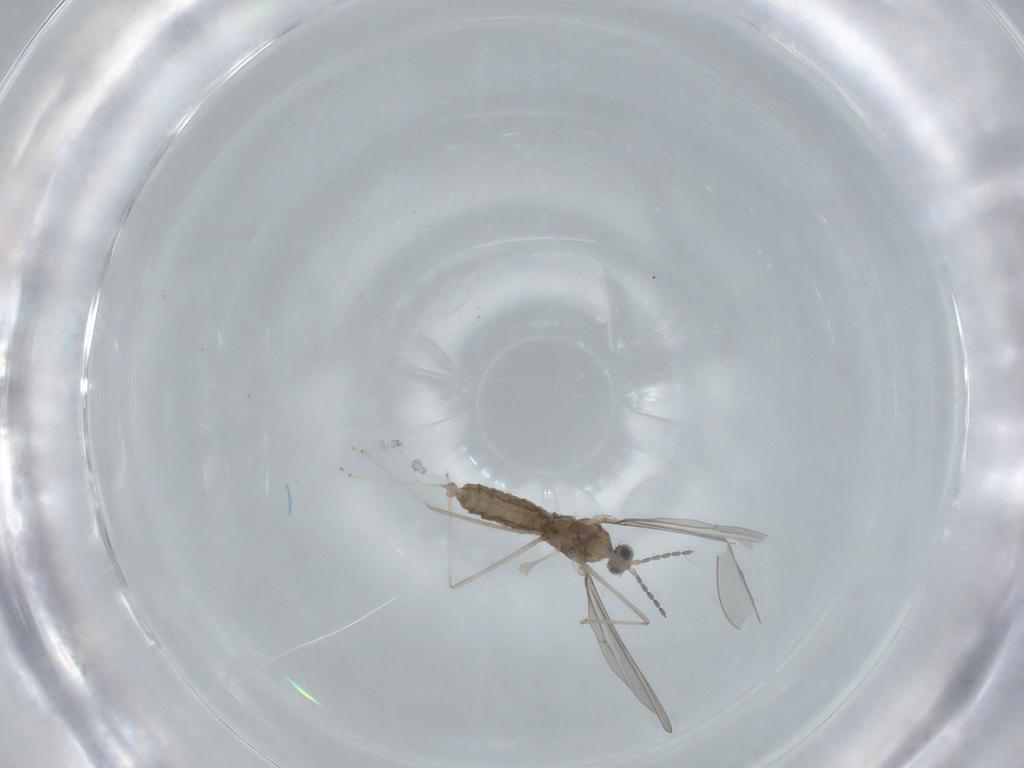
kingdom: Animalia
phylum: Arthropoda
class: Insecta
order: Diptera
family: Cecidomyiidae
